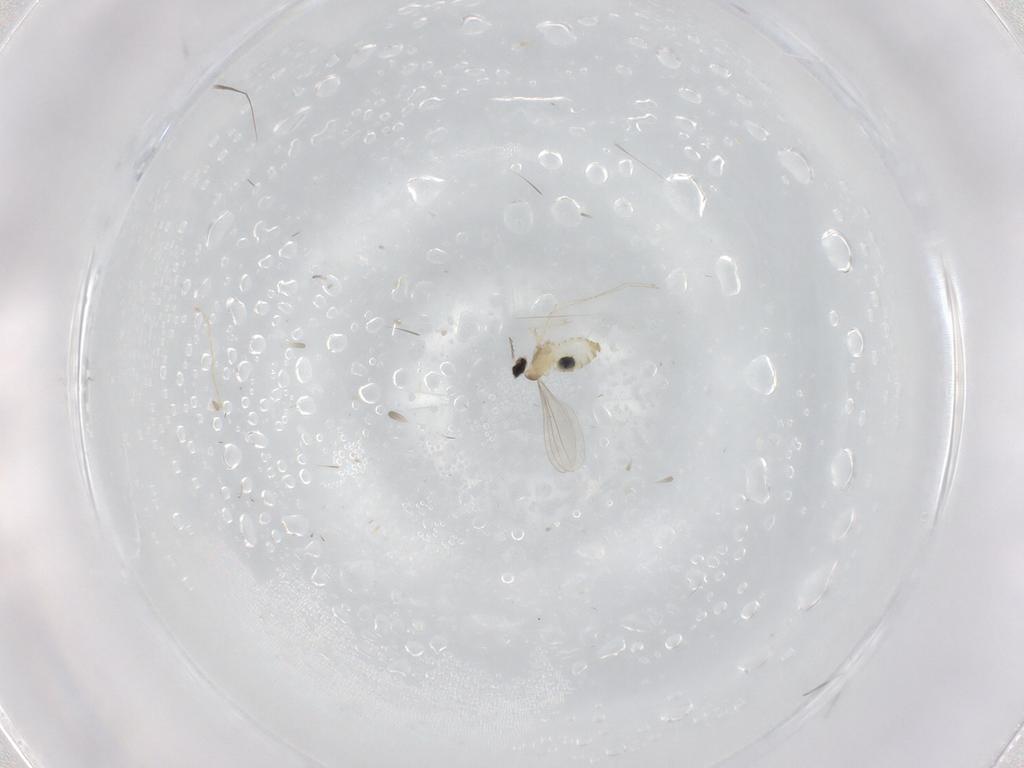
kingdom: Animalia
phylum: Arthropoda
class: Insecta
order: Diptera
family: Cecidomyiidae
